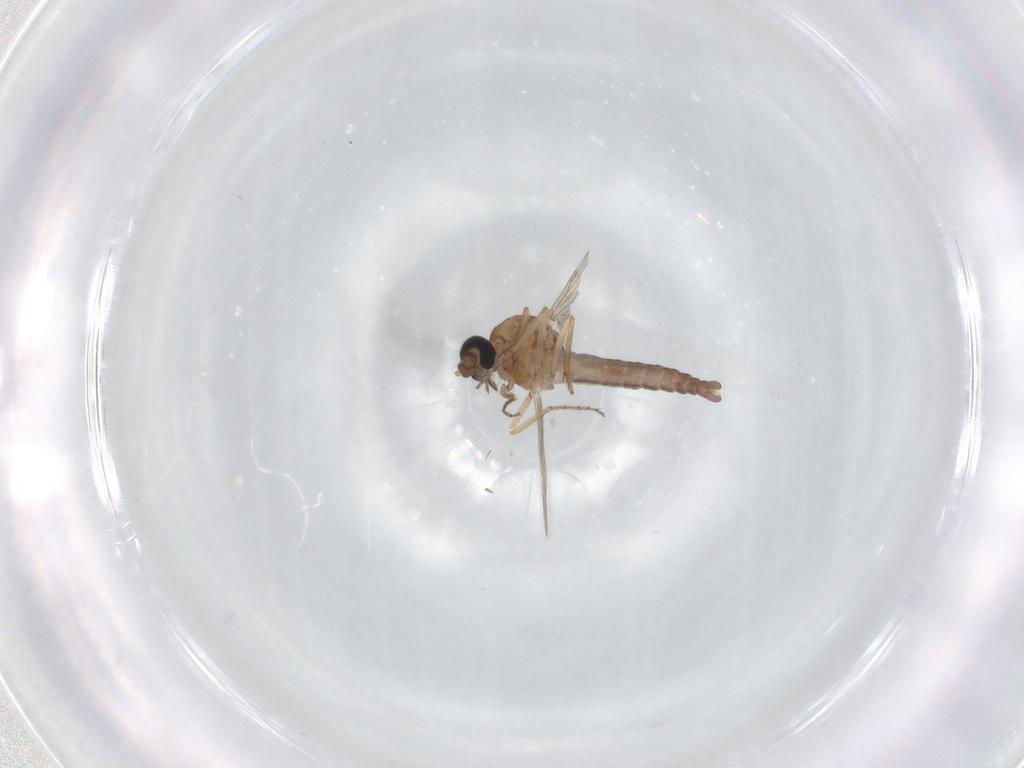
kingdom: Animalia
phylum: Arthropoda
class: Insecta
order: Diptera
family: Ceratopogonidae
